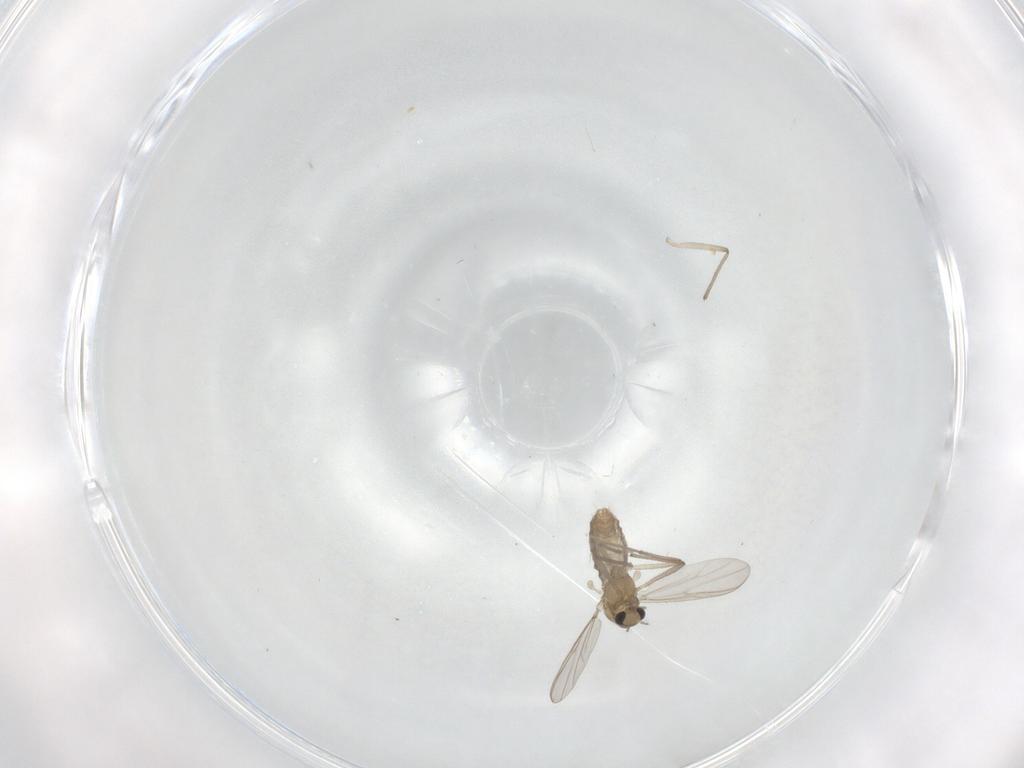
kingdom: Animalia
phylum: Arthropoda
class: Insecta
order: Diptera
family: Chironomidae
